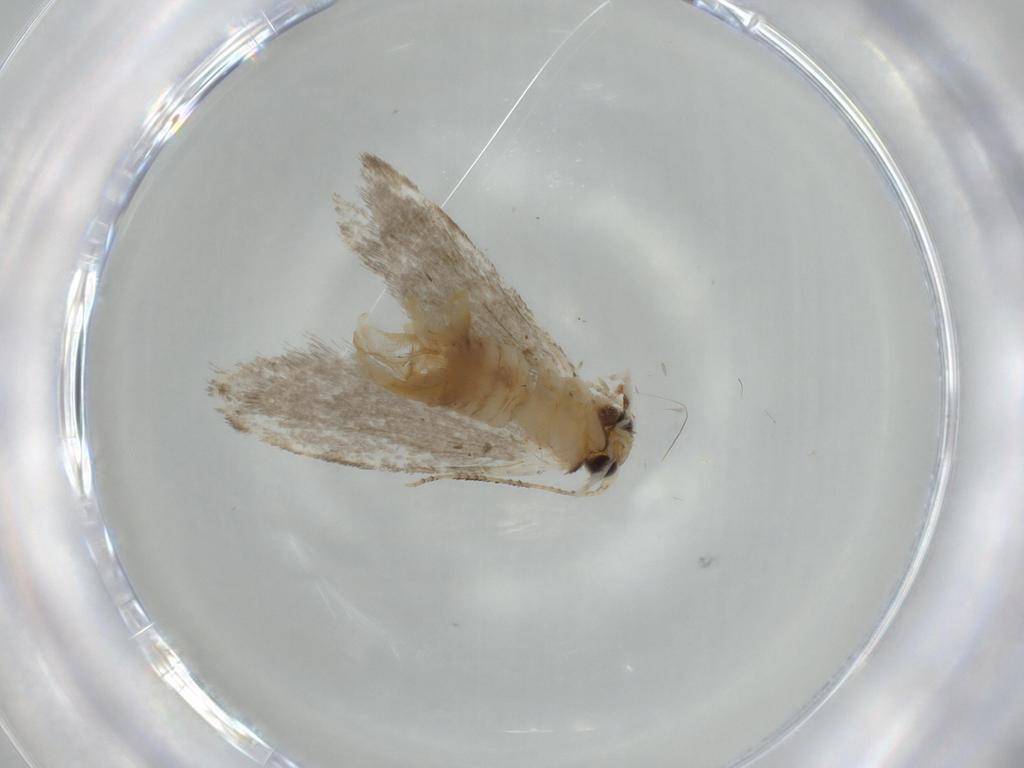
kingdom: Animalia
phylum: Arthropoda
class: Insecta
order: Lepidoptera
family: Tineidae
